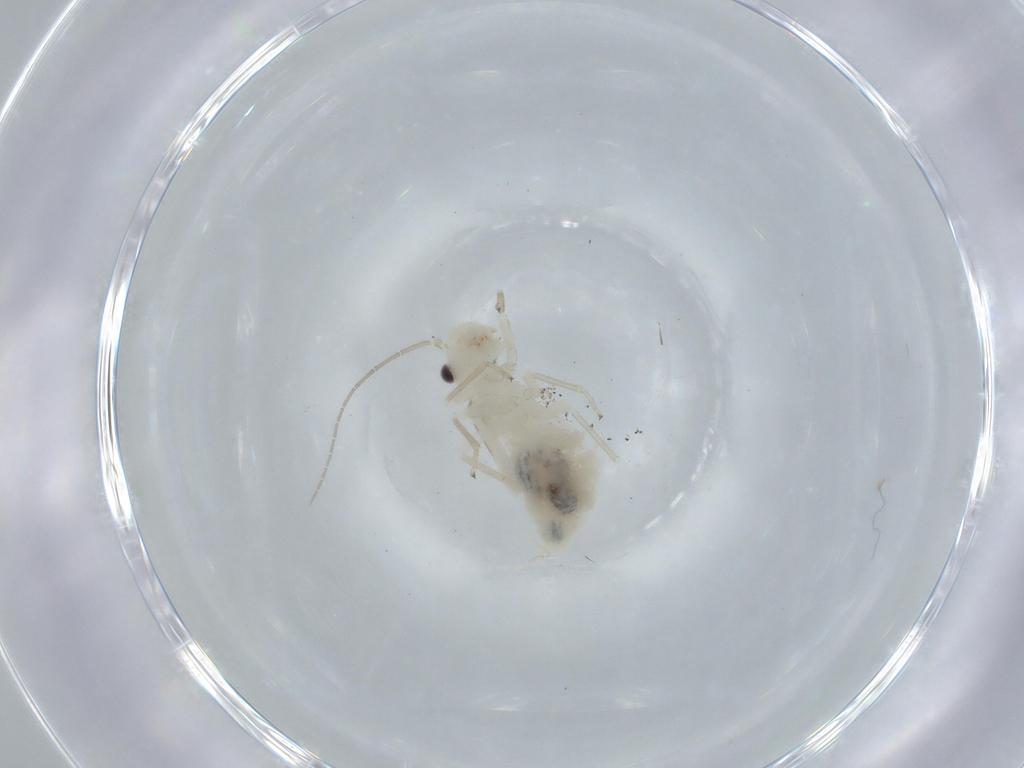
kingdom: Animalia
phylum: Arthropoda
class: Insecta
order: Psocodea
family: Caeciliusidae
